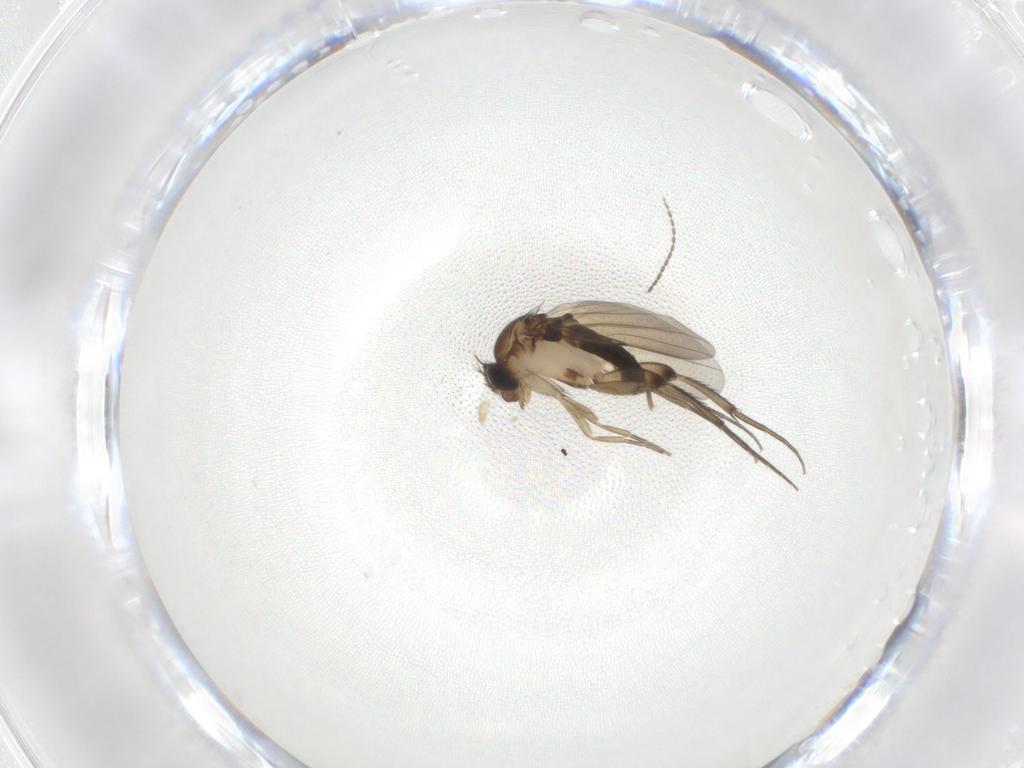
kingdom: Animalia
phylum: Arthropoda
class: Insecta
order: Diptera
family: Phoridae
